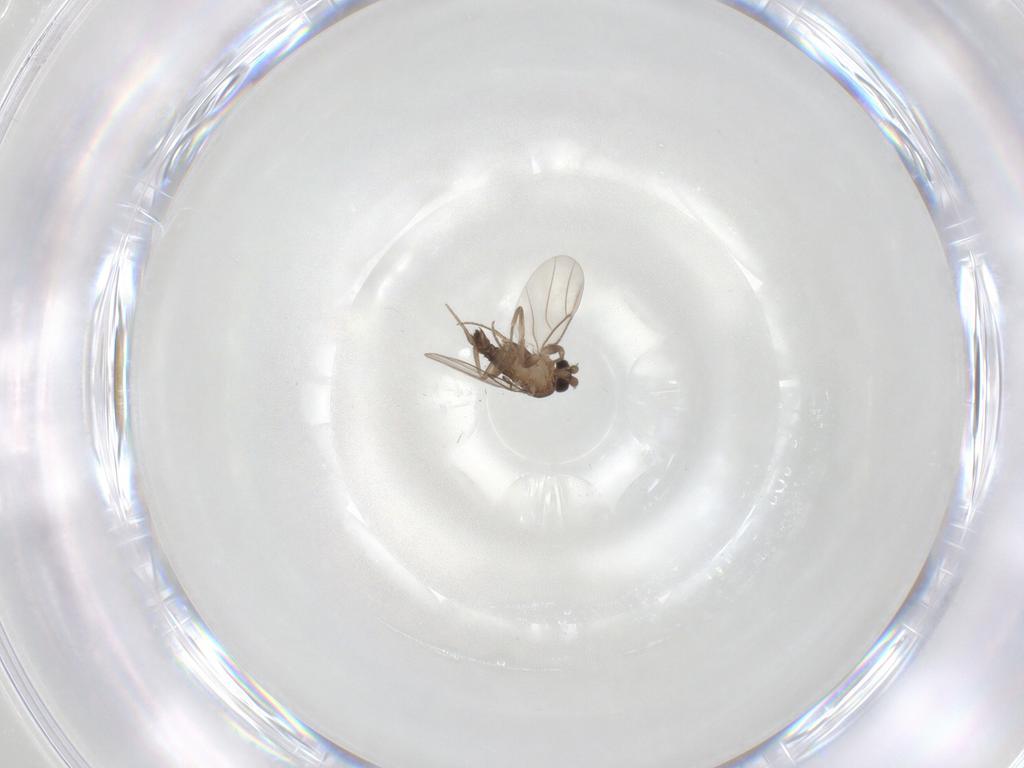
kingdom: Animalia
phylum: Arthropoda
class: Insecta
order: Diptera
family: Phoridae
